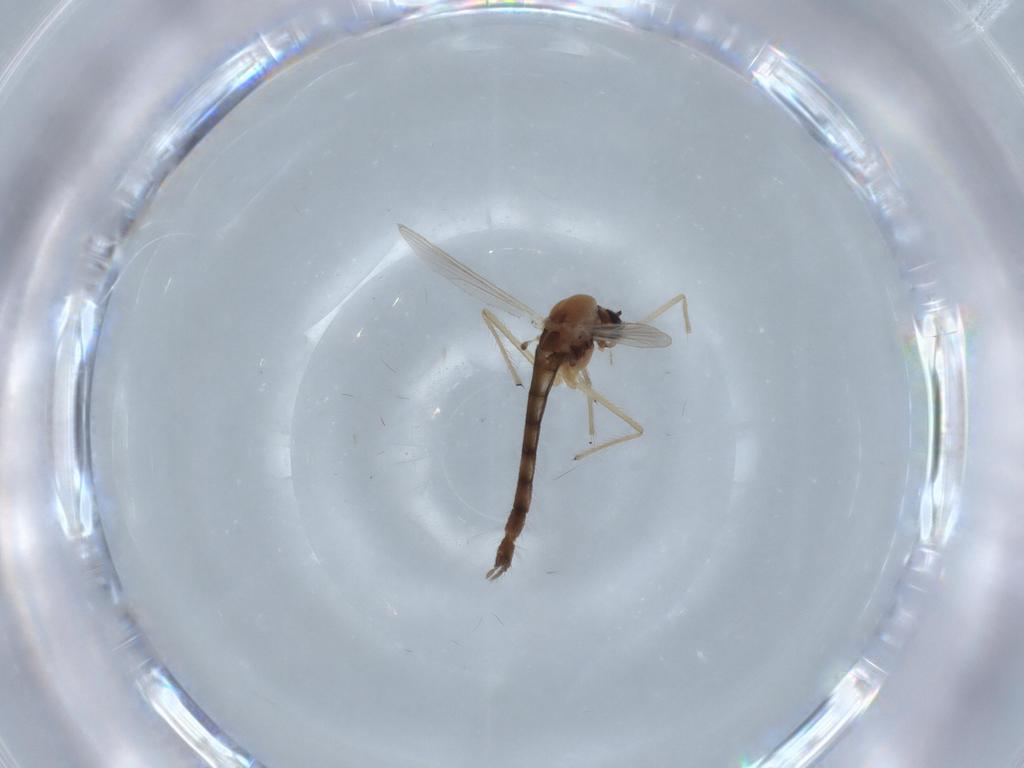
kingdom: Animalia
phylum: Arthropoda
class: Insecta
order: Diptera
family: Chironomidae
